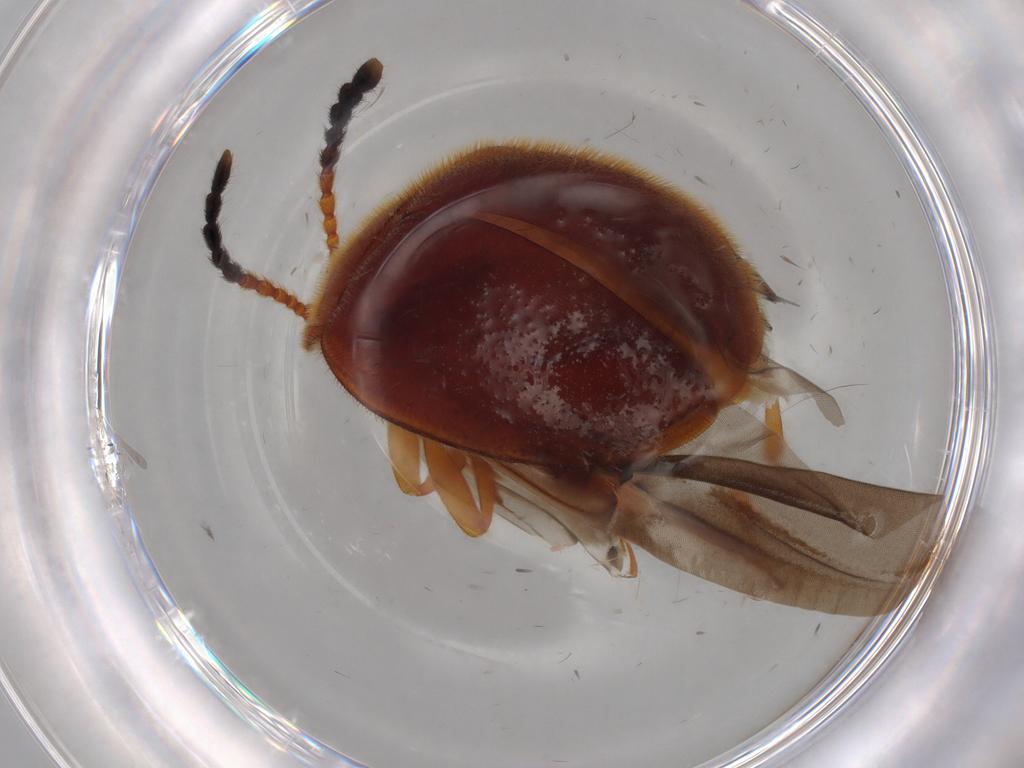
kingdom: Animalia
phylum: Arthropoda
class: Insecta
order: Coleoptera
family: Endomychidae
